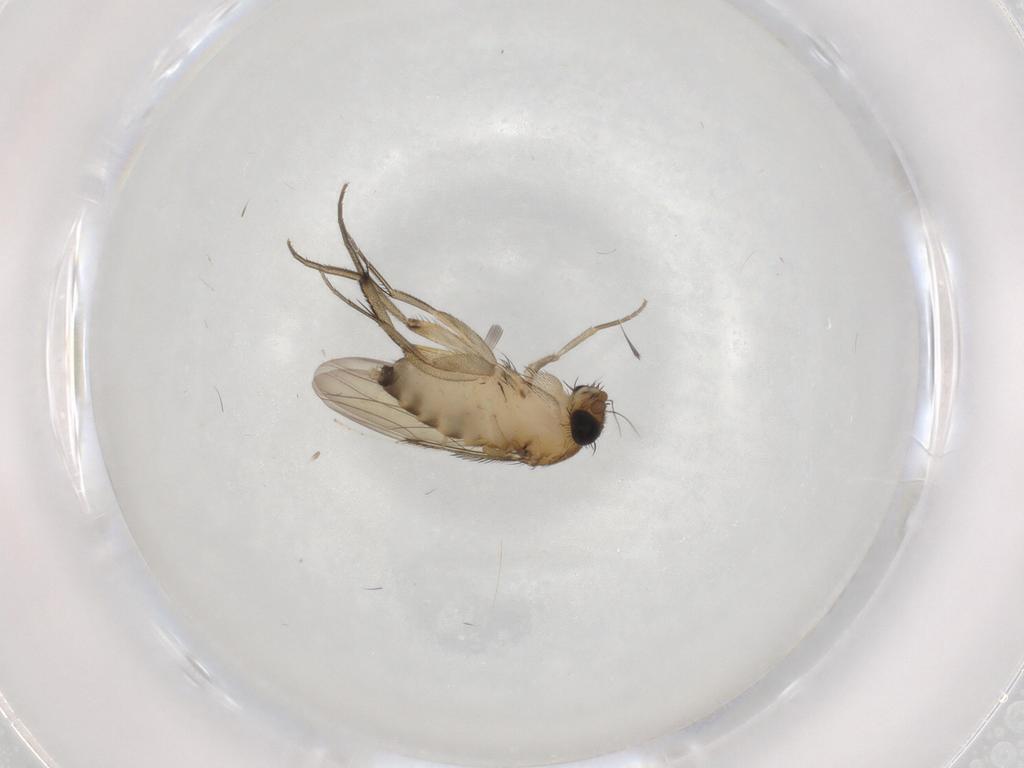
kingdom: Animalia
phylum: Arthropoda
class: Insecta
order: Diptera
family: Phoridae
